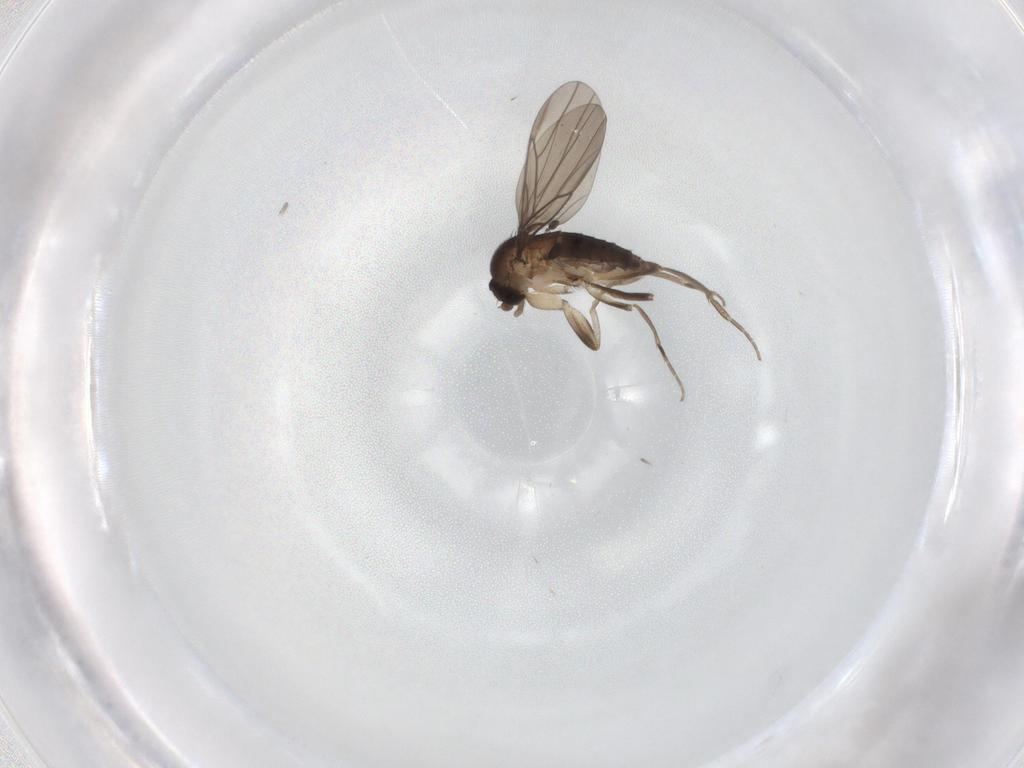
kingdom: Animalia
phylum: Arthropoda
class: Insecta
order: Diptera
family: Phoridae
